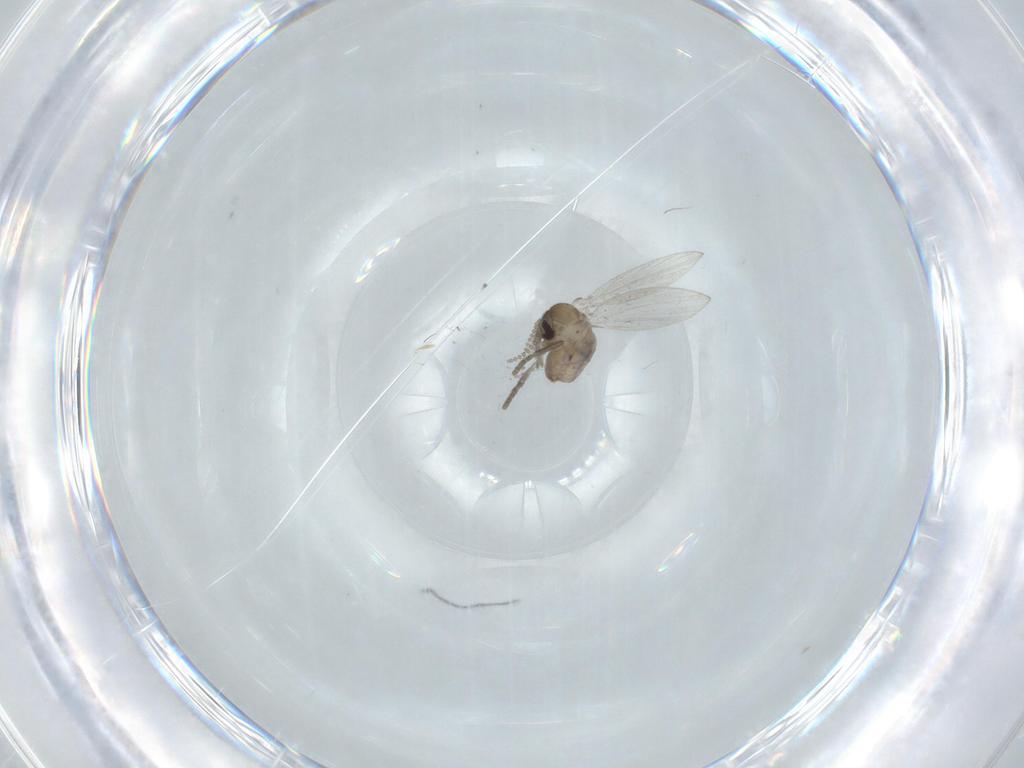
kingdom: Animalia
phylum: Arthropoda
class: Insecta
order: Diptera
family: Psychodidae
